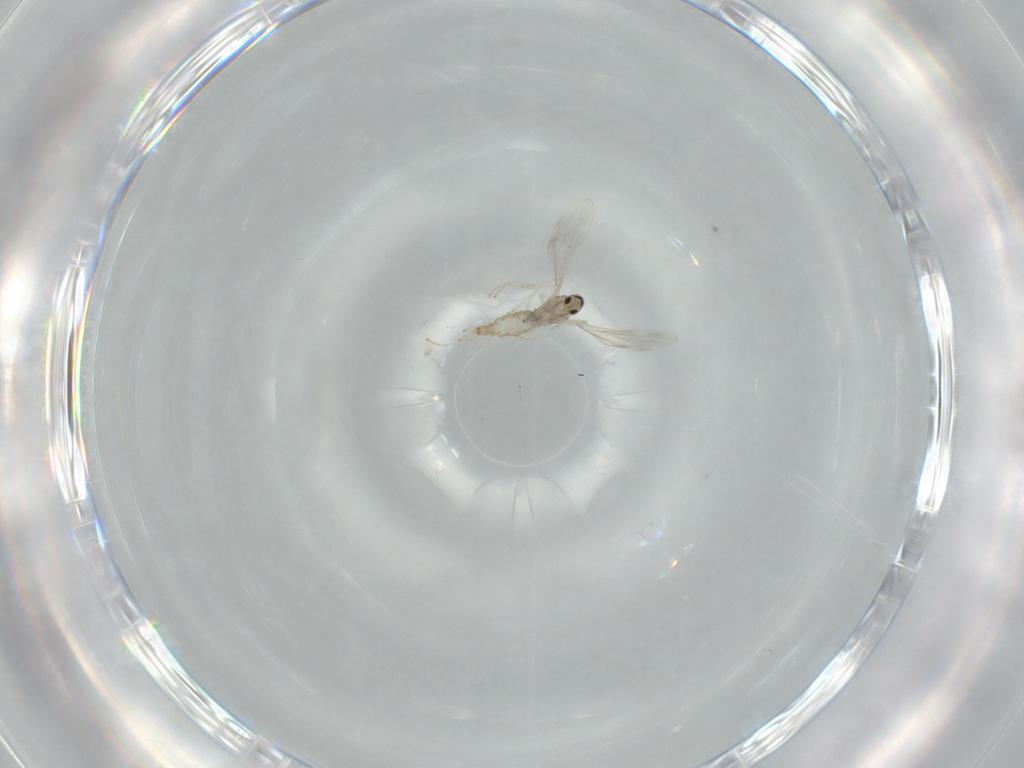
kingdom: Animalia
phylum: Arthropoda
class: Insecta
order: Diptera
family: Cecidomyiidae
